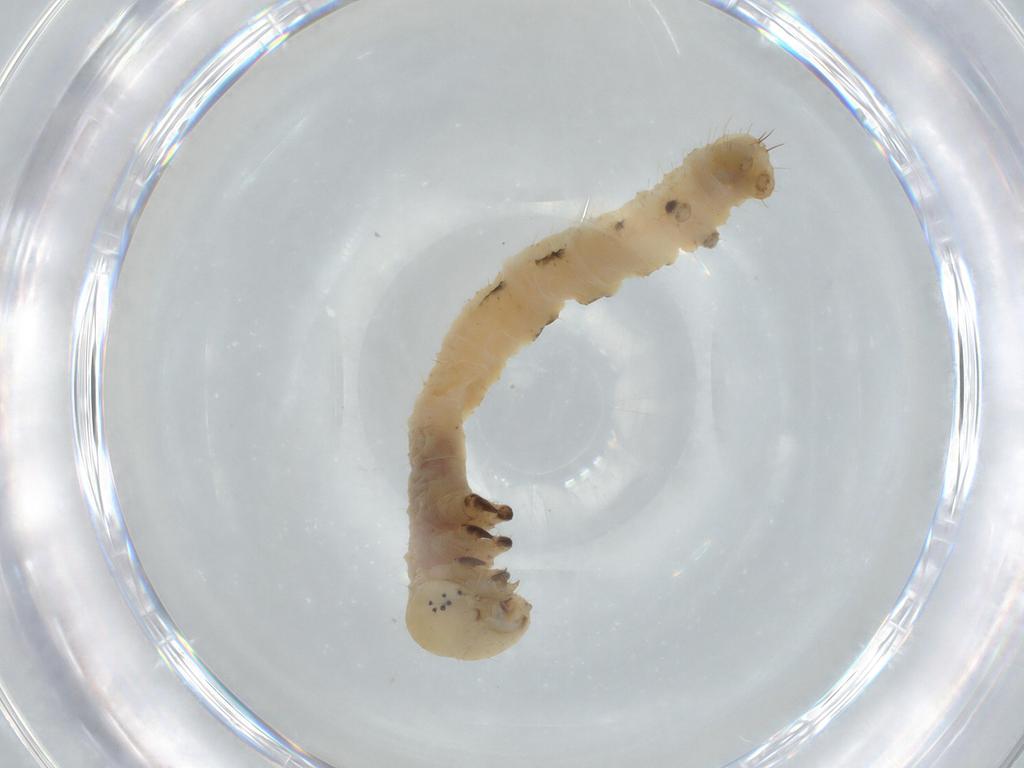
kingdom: Animalia
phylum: Arthropoda
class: Insecta
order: Lepidoptera
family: Geometridae
